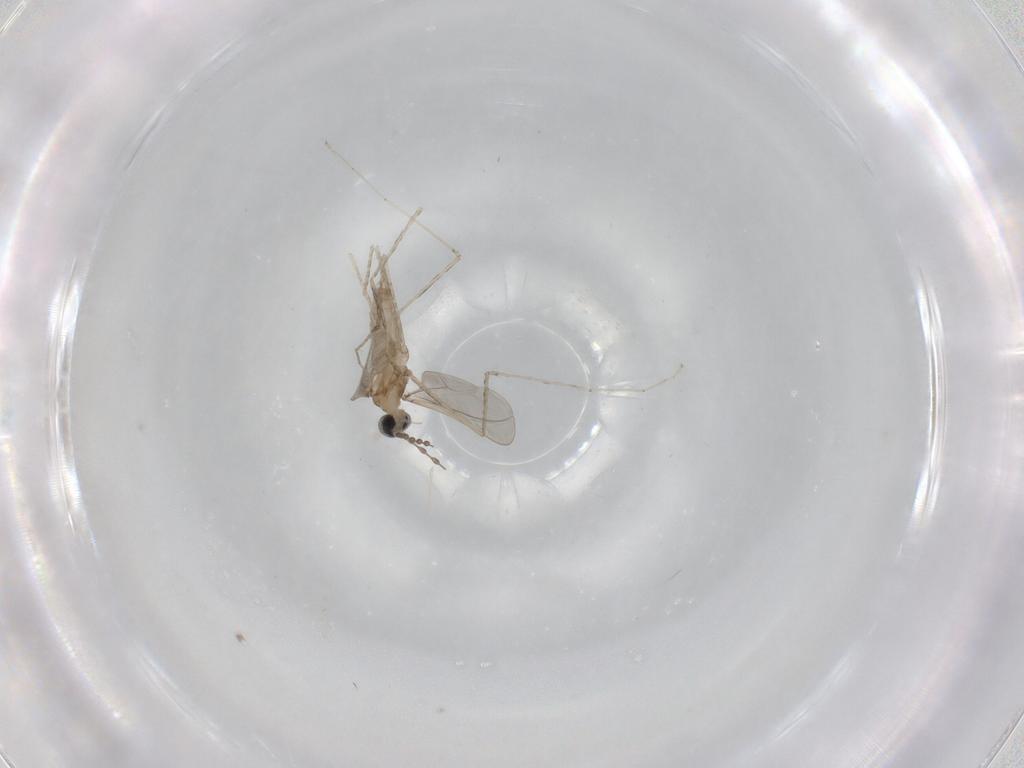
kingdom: Animalia
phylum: Arthropoda
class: Insecta
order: Diptera
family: Cecidomyiidae
